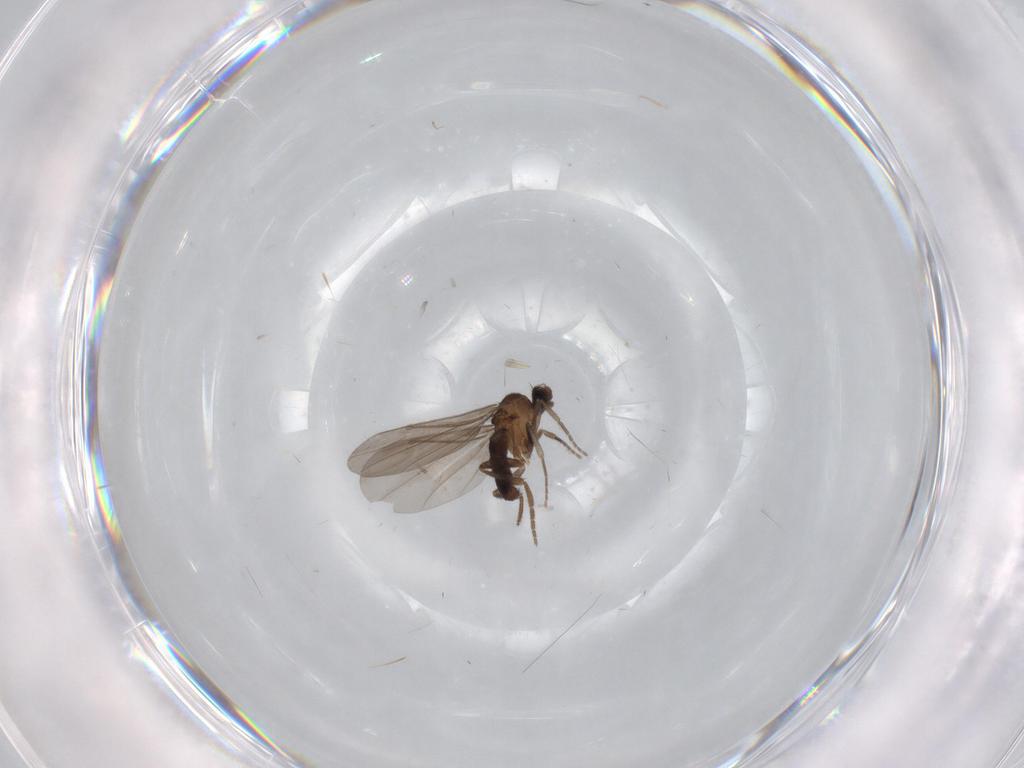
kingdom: Animalia
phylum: Arthropoda
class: Insecta
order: Diptera
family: Phoridae
